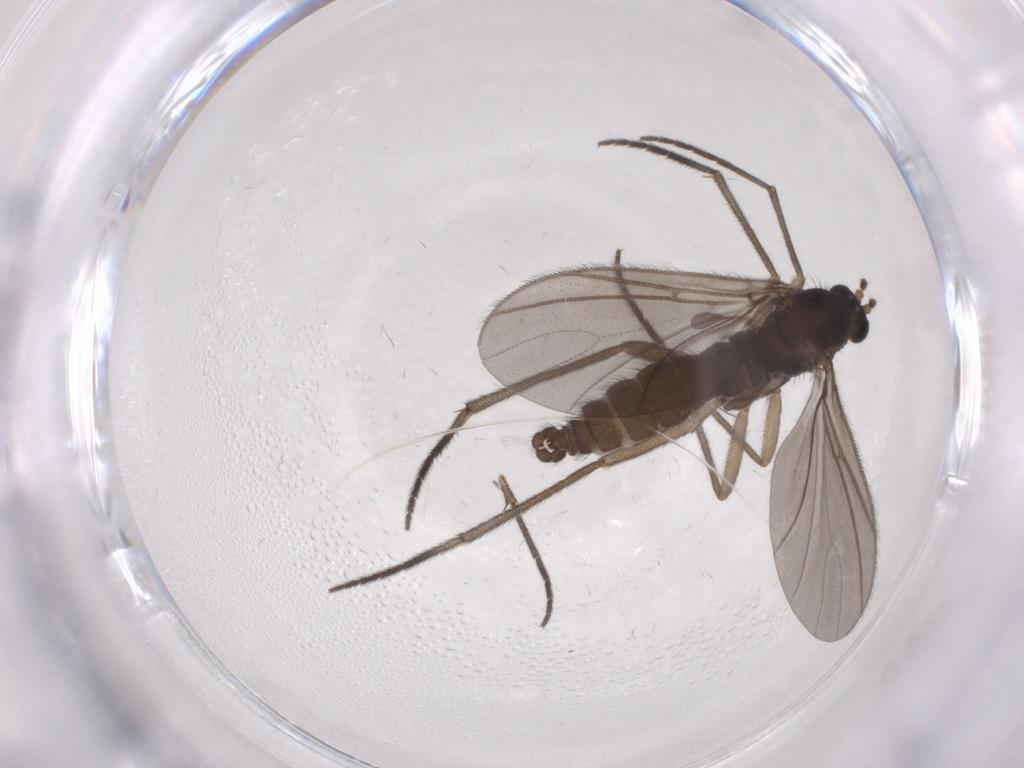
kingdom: Animalia
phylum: Arthropoda
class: Insecta
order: Diptera
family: Sciaridae
